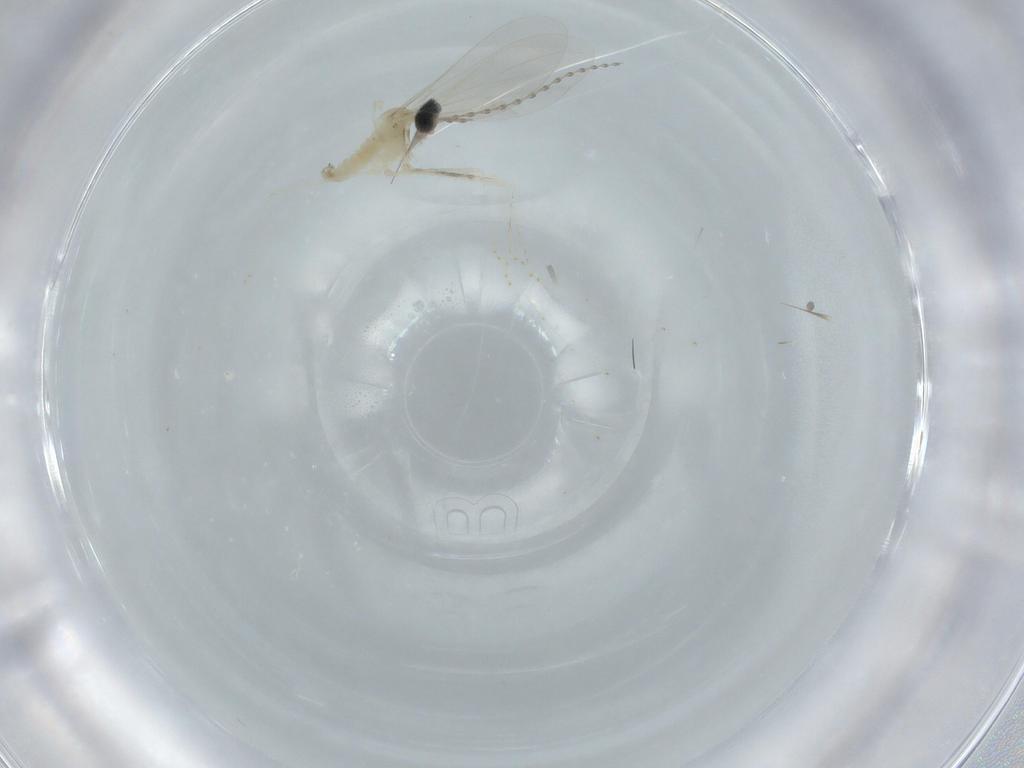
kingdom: Animalia
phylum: Arthropoda
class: Insecta
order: Diptera
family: Cecidomyiidae
